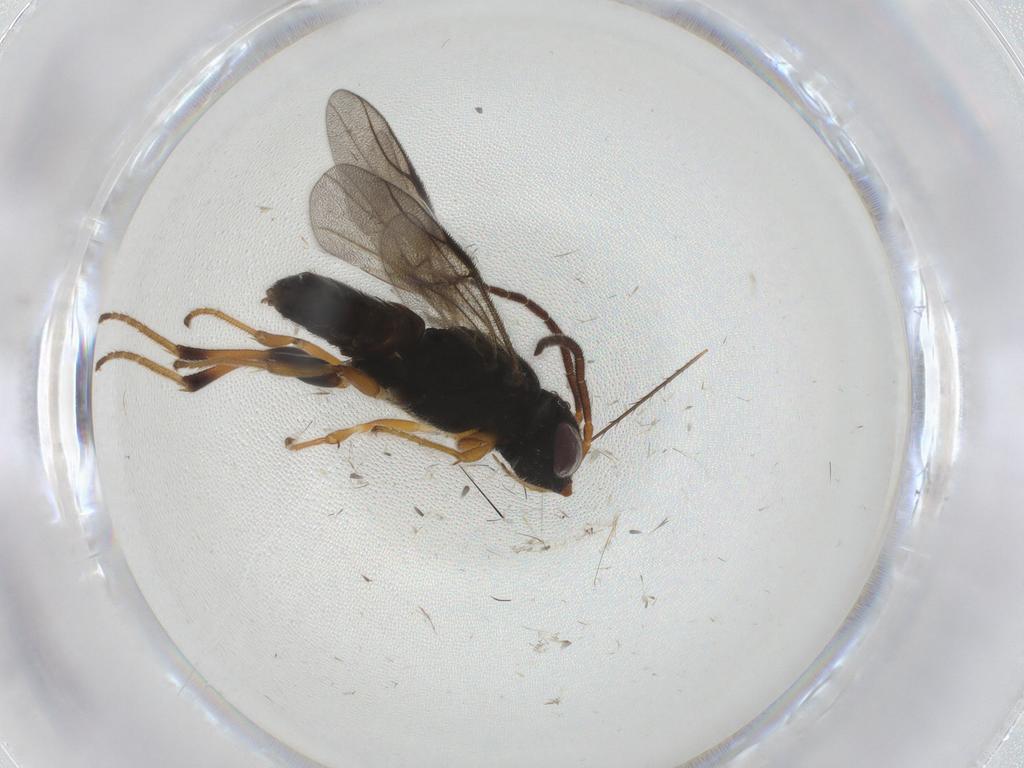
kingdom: Animalia
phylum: Arthropoda
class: Insecta
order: Hymenoptera
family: Dryinidae
